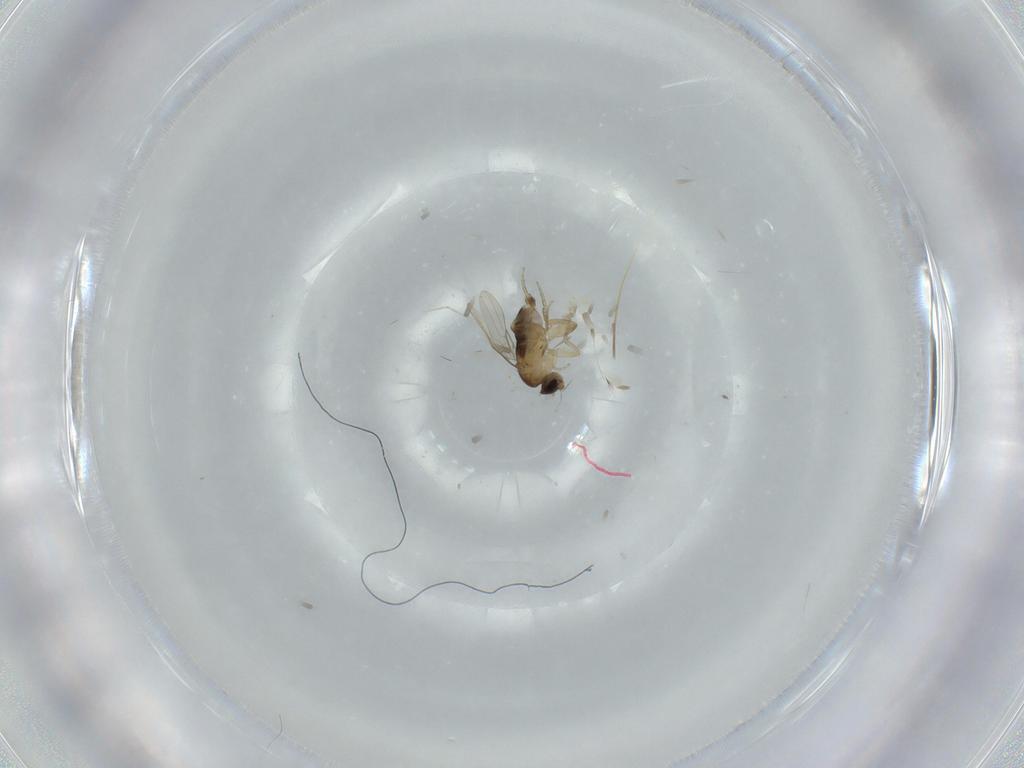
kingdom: Animalia
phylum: Arthropoda
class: Insecta
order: Diptera
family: Phoridae
